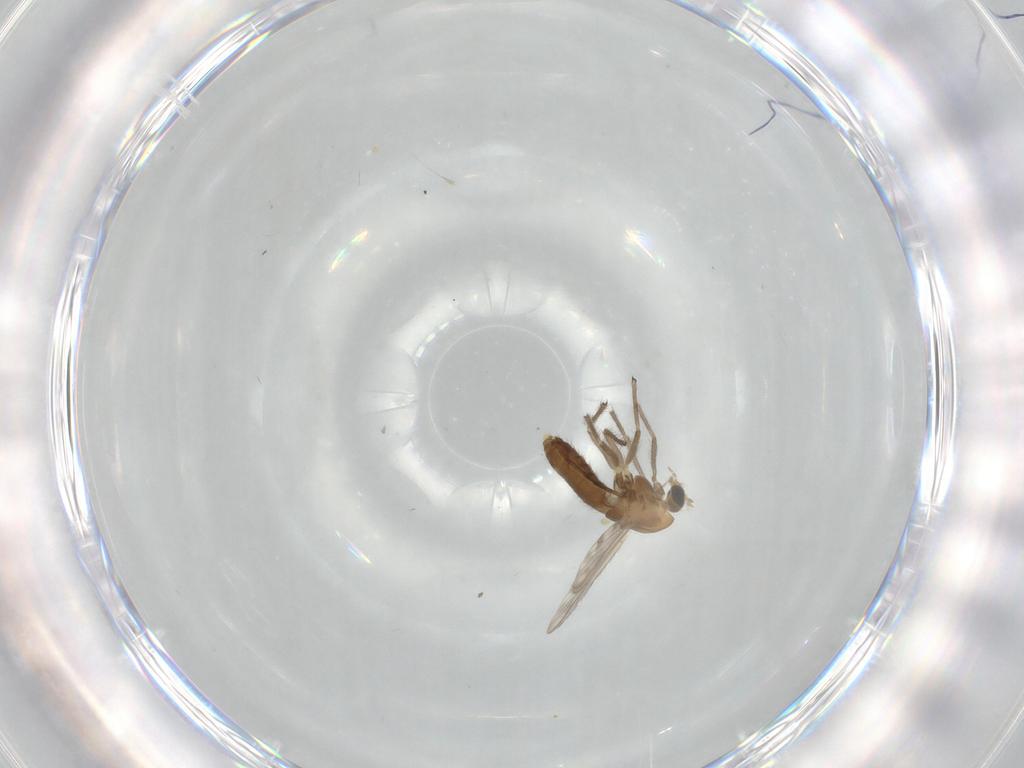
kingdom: Animalia
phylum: Arthropoda
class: Insecta
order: Diptera
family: Chironomidae
